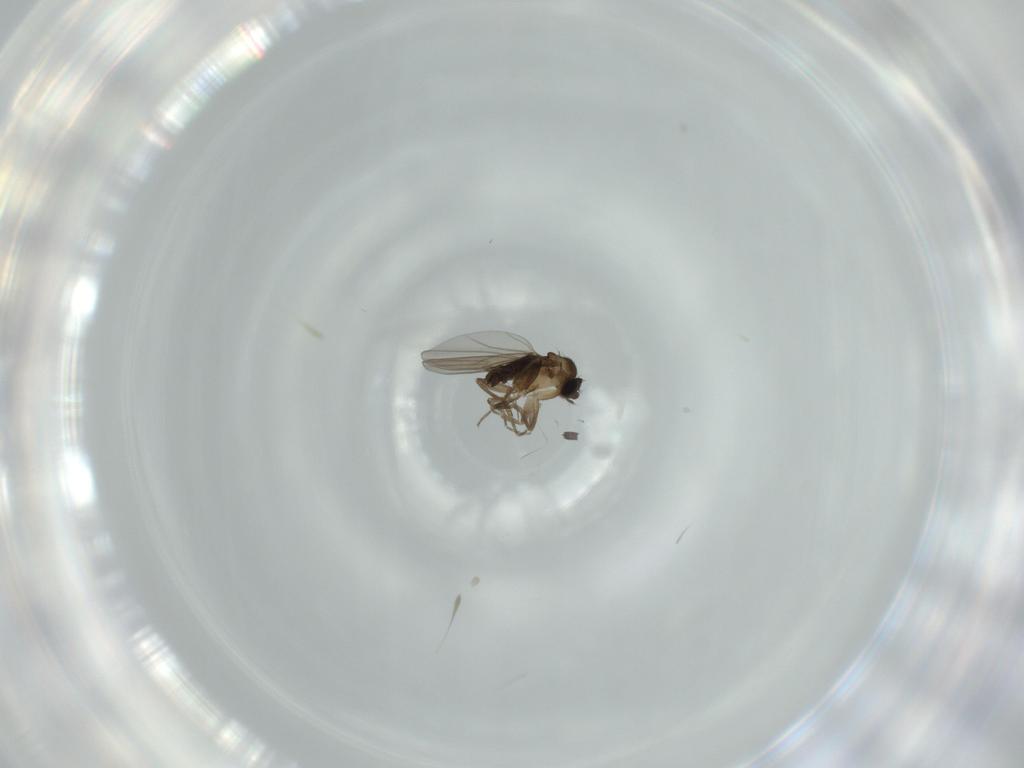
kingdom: Animalia
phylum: Arthropoda
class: Insecta
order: Diptera
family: Phoridae
